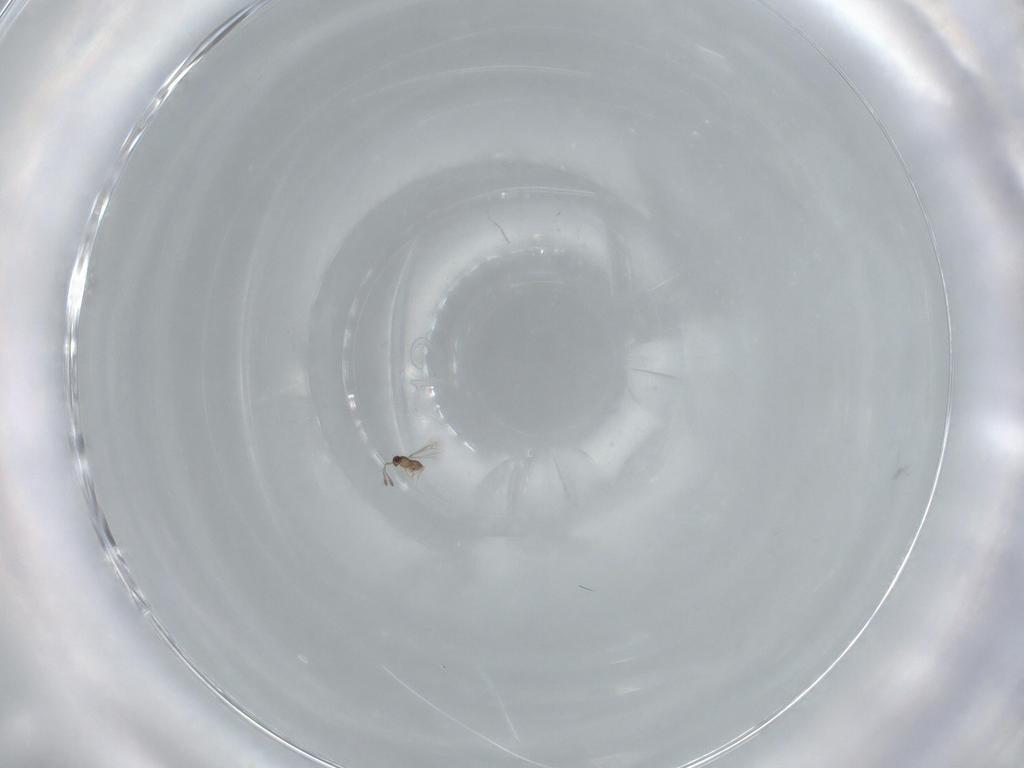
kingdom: Animalia
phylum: Arthropoda
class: Insecta
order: Hymenoptera
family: Mymaridae
